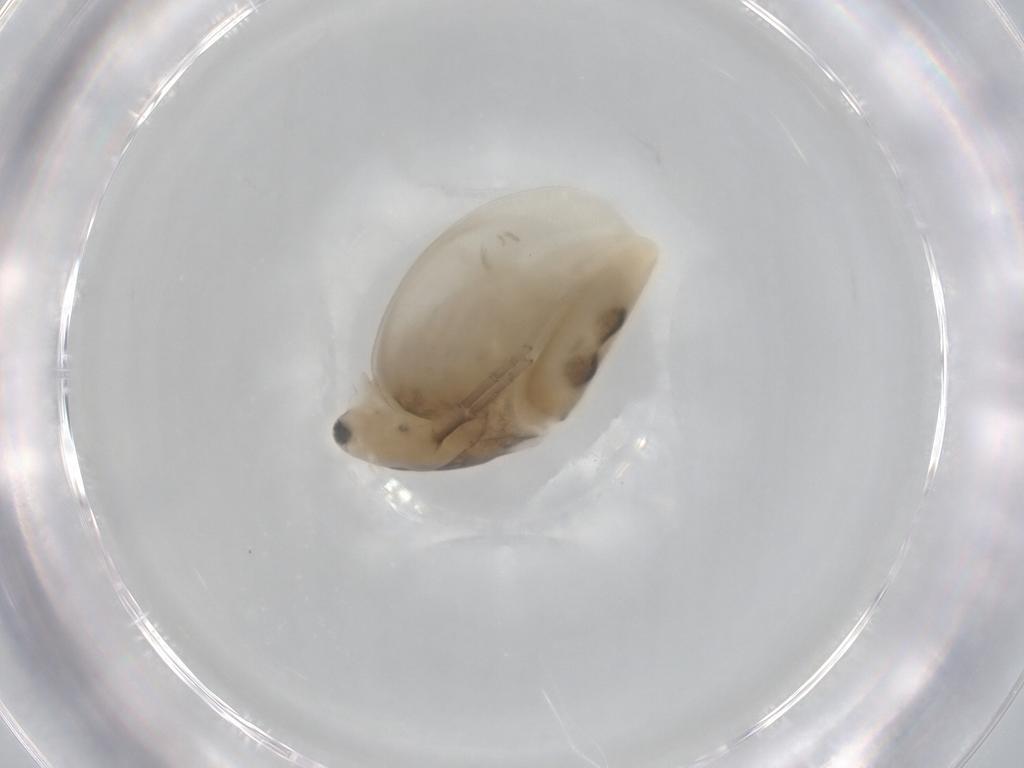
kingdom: Animalia
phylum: Arthropoda
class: Branchiopoda
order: Diplostraca
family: Daphniidae
